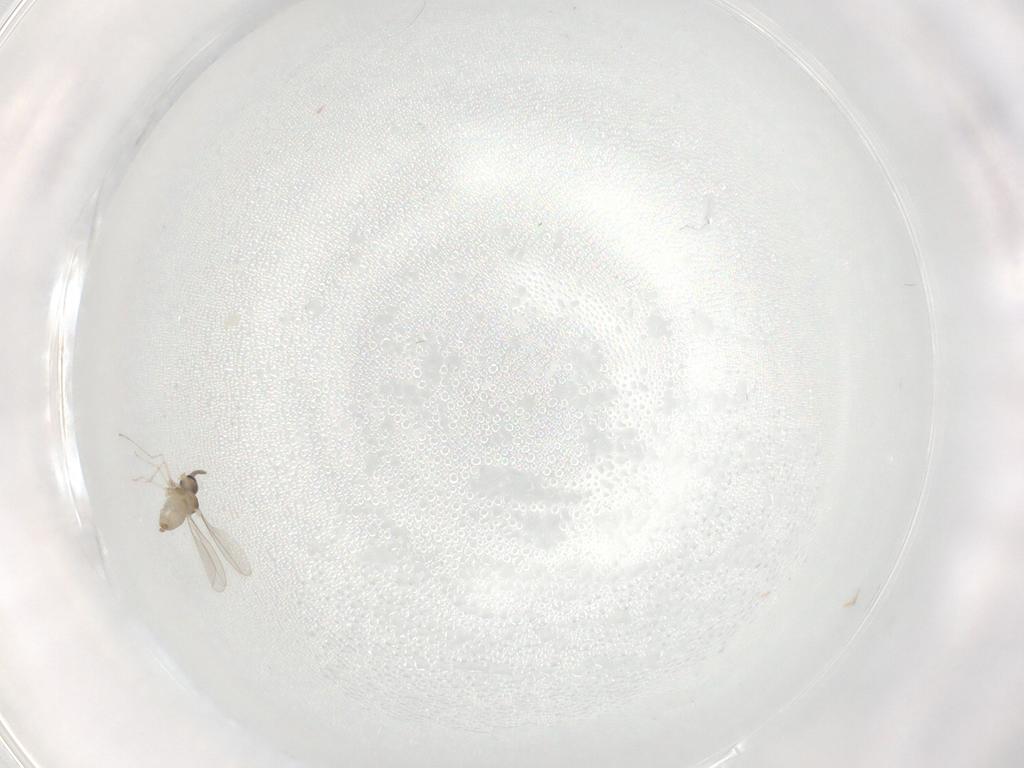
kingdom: Animalia
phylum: Arthropoda
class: Insecta
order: Diptera
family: Cecidomyiidae
